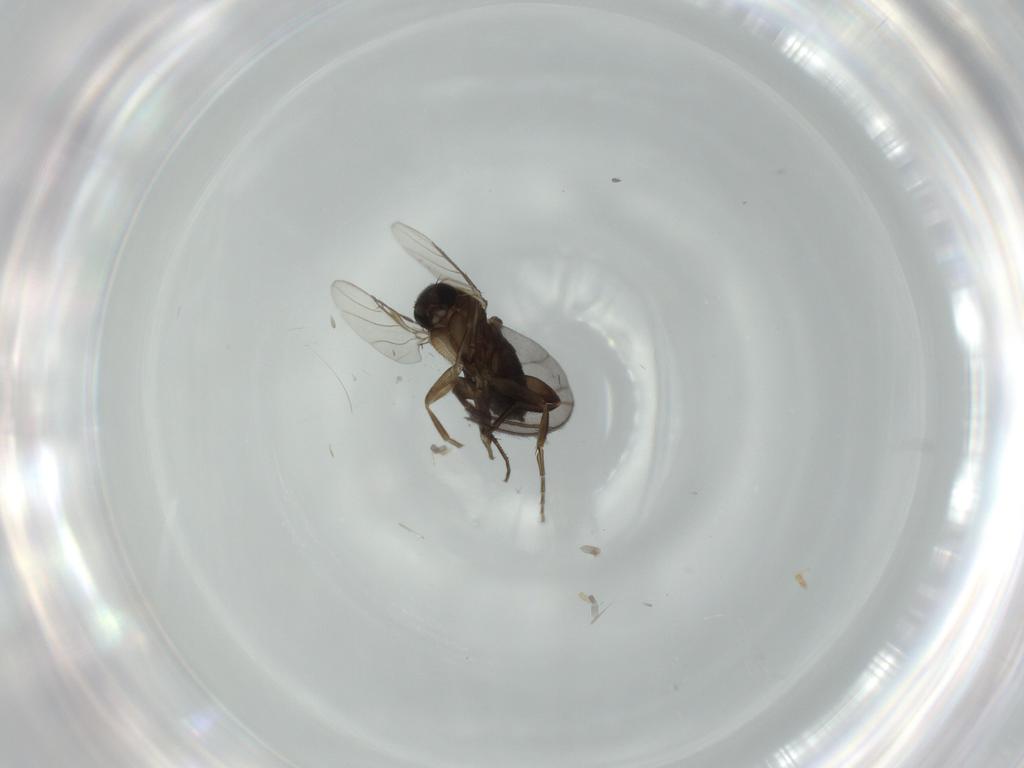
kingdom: Animalia
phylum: Arthropoda
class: Insecta
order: Diptera
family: Phoridae
